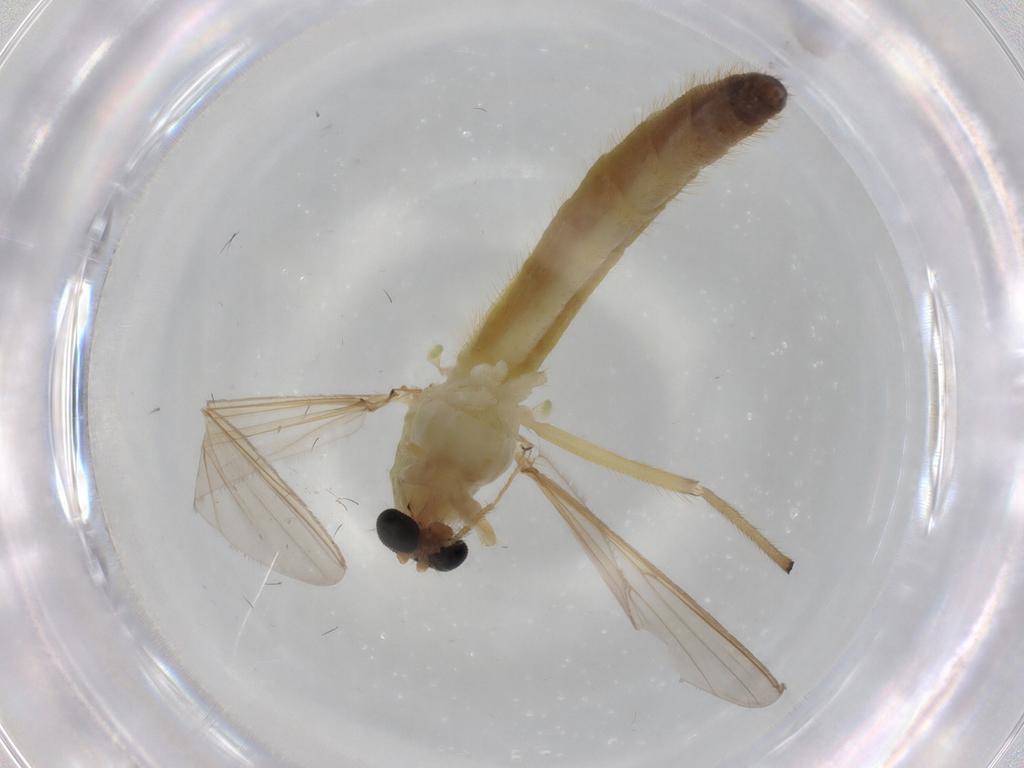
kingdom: Animalia
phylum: Arthropoda
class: Insecta
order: Diptera
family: Chironomidae
